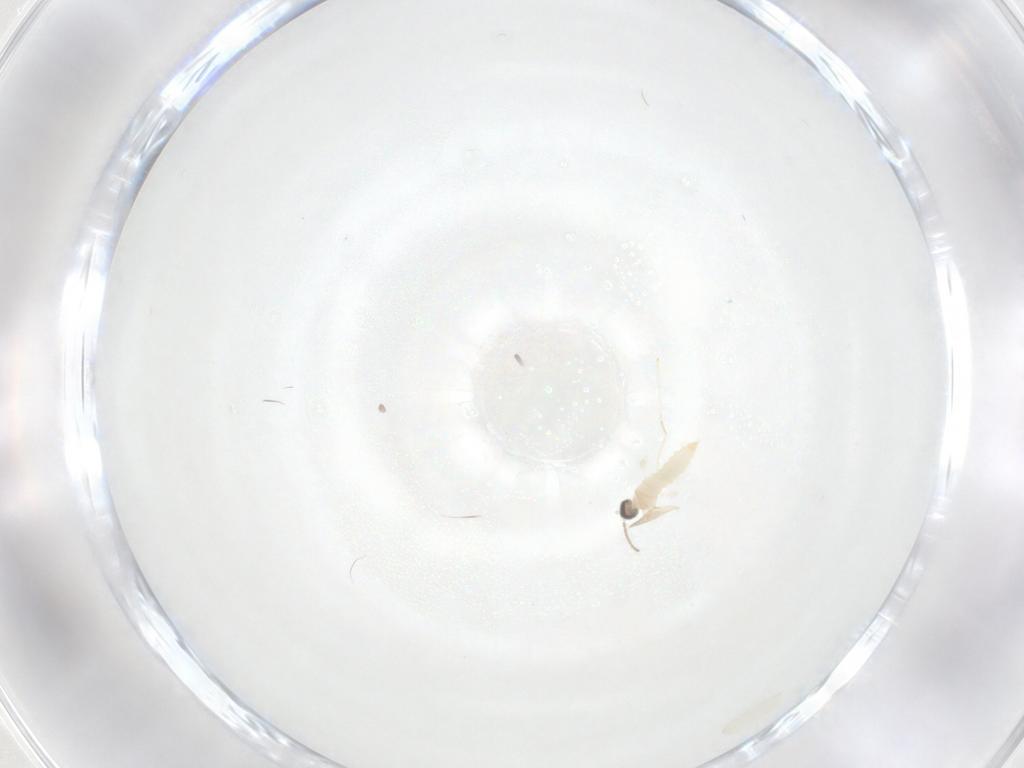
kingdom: Animalia
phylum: Arthropoda
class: Insecta
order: Diptera
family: Cecidomyiidae
